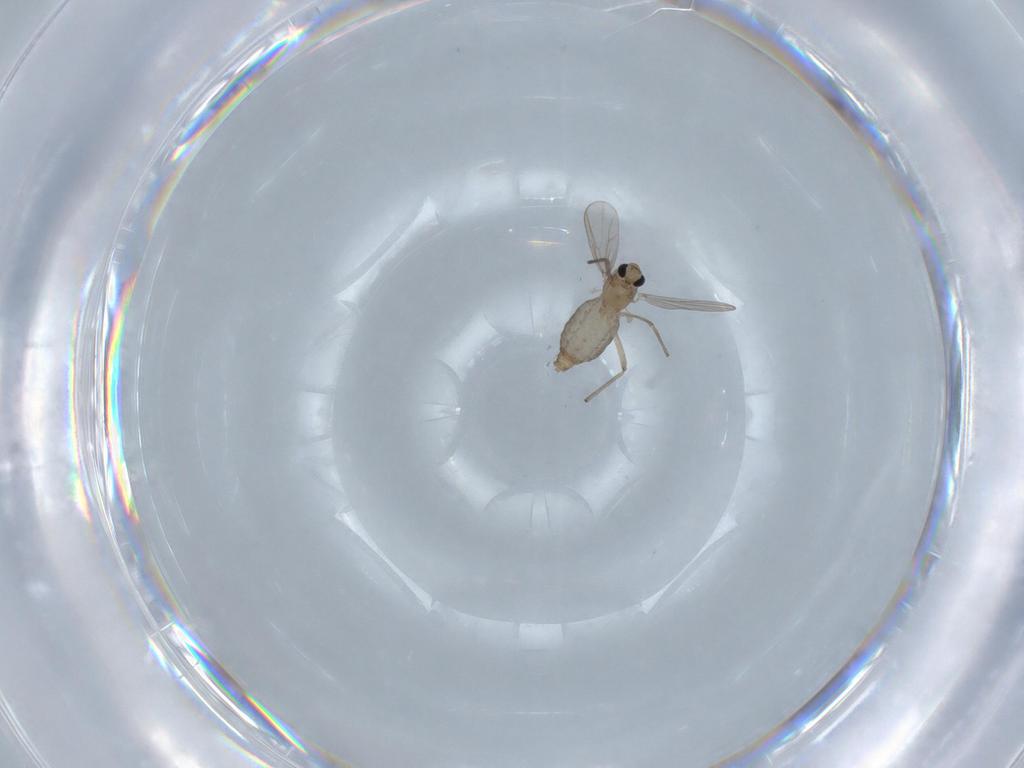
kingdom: Animalia
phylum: Arthropoda
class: Insecta
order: Diptera
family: Chironomidae
